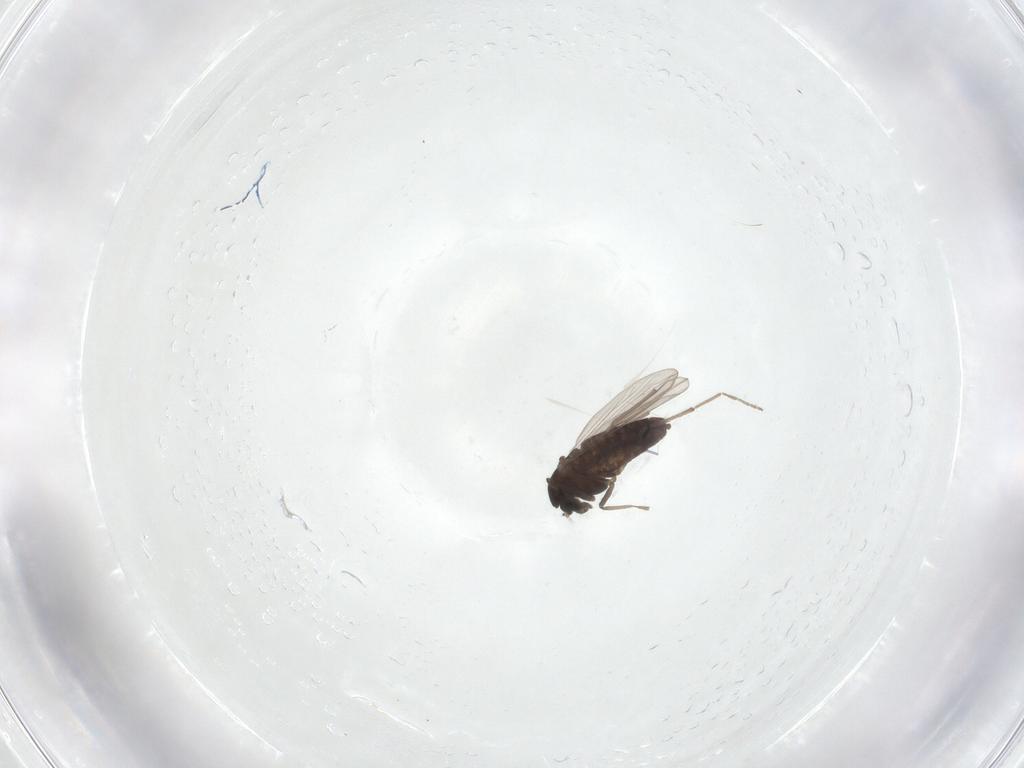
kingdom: Animalia
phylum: Arthropoda
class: Insecta
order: Diptera
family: Chironomidae
